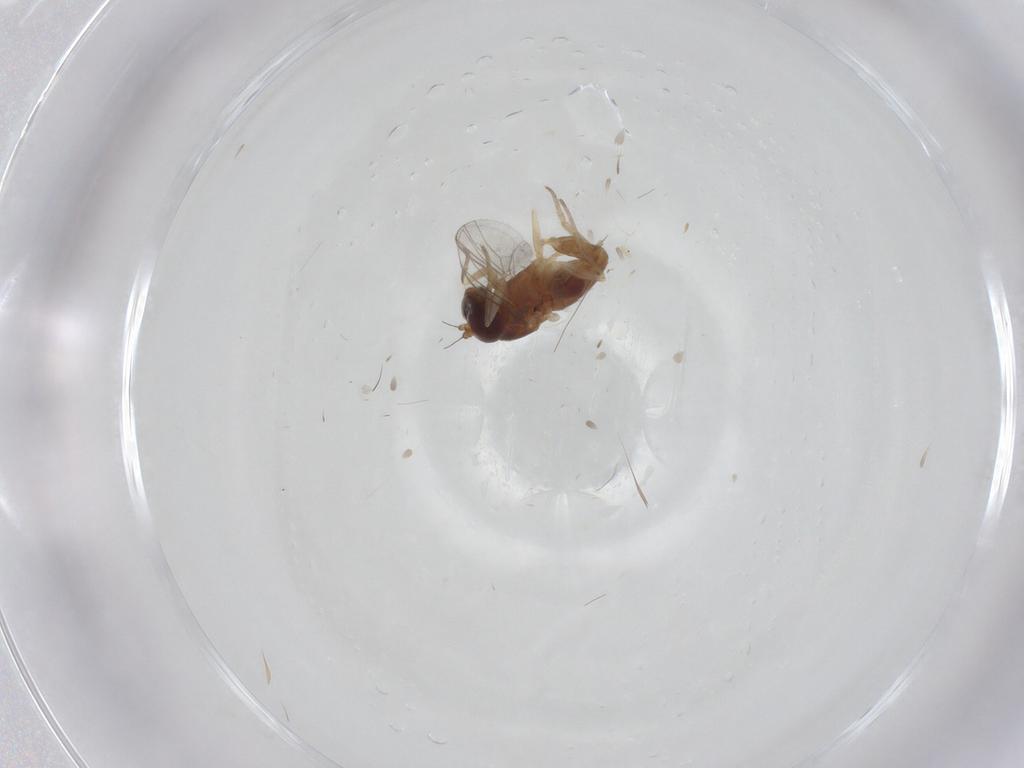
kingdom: Animalia
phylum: Arthropoda
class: Insecta
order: Diptera
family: Dolichopodidae
